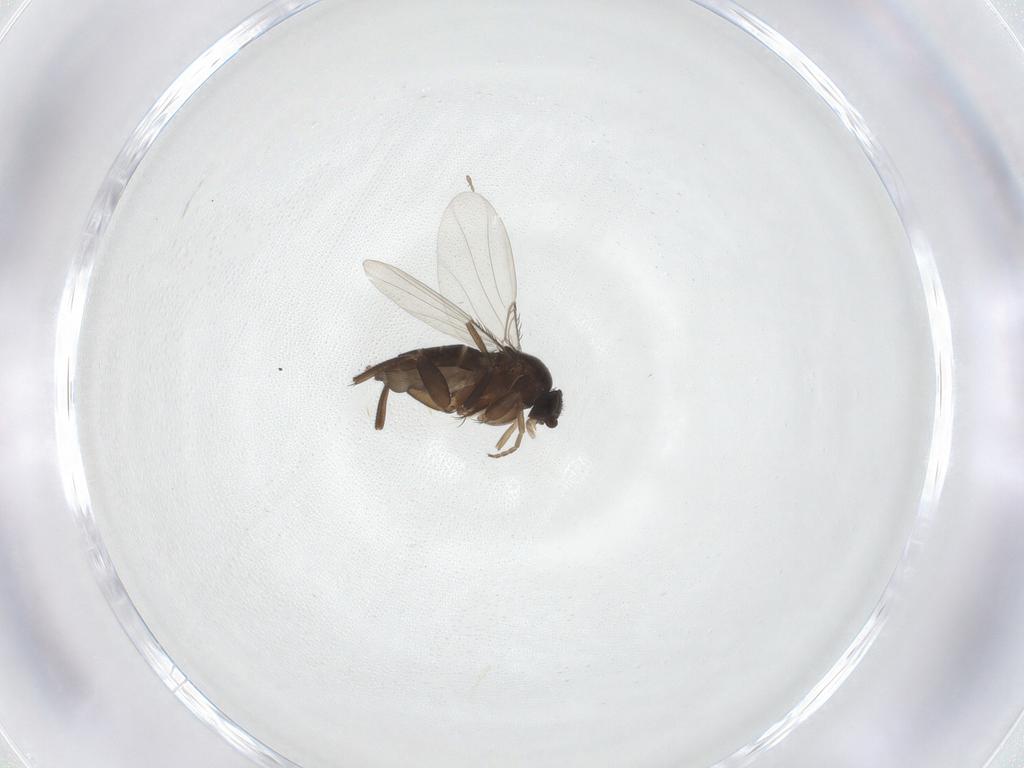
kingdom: Animalia
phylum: Arthropoda
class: Insecta
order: Diptera
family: Phoridae
